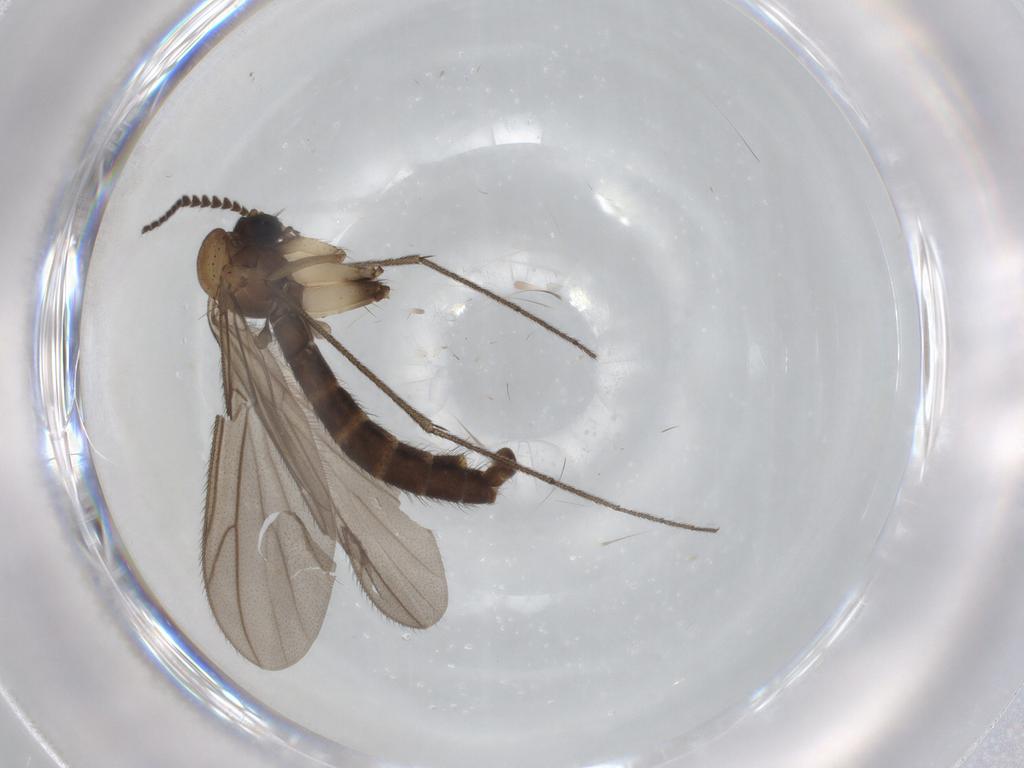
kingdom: Animalia
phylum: Arthropoda
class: Insecta
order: Diptera
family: Ditomyiidae
